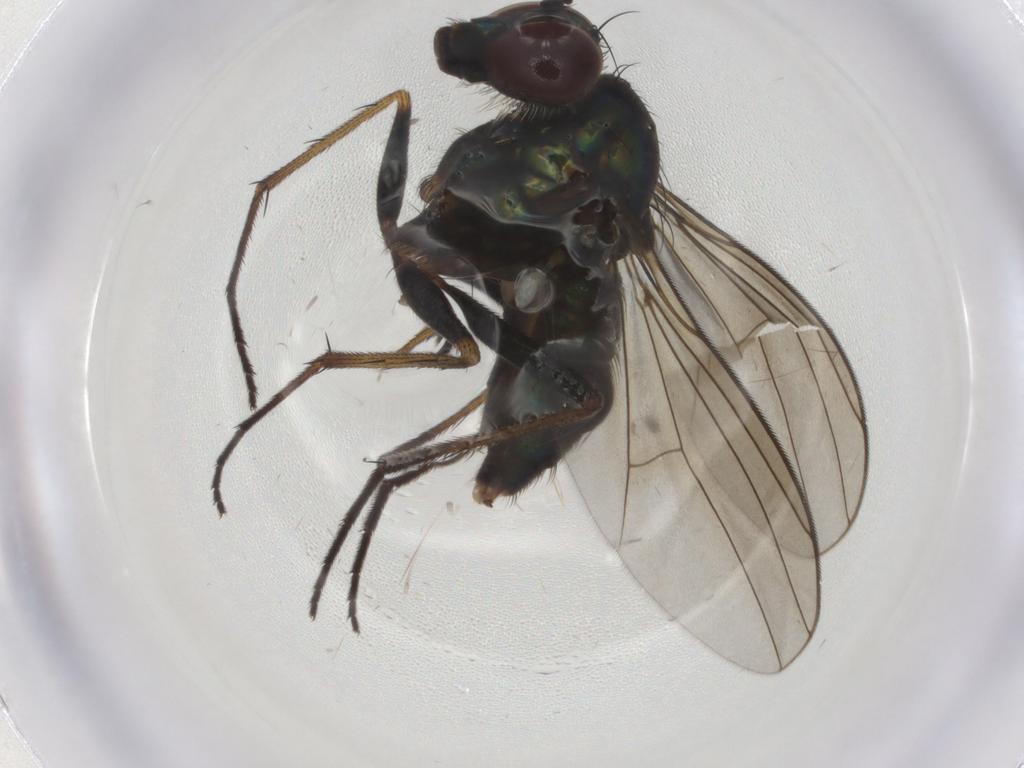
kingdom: Animalia
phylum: Arthropoda
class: Insecta
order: Diptera
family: Dolichopodidae
